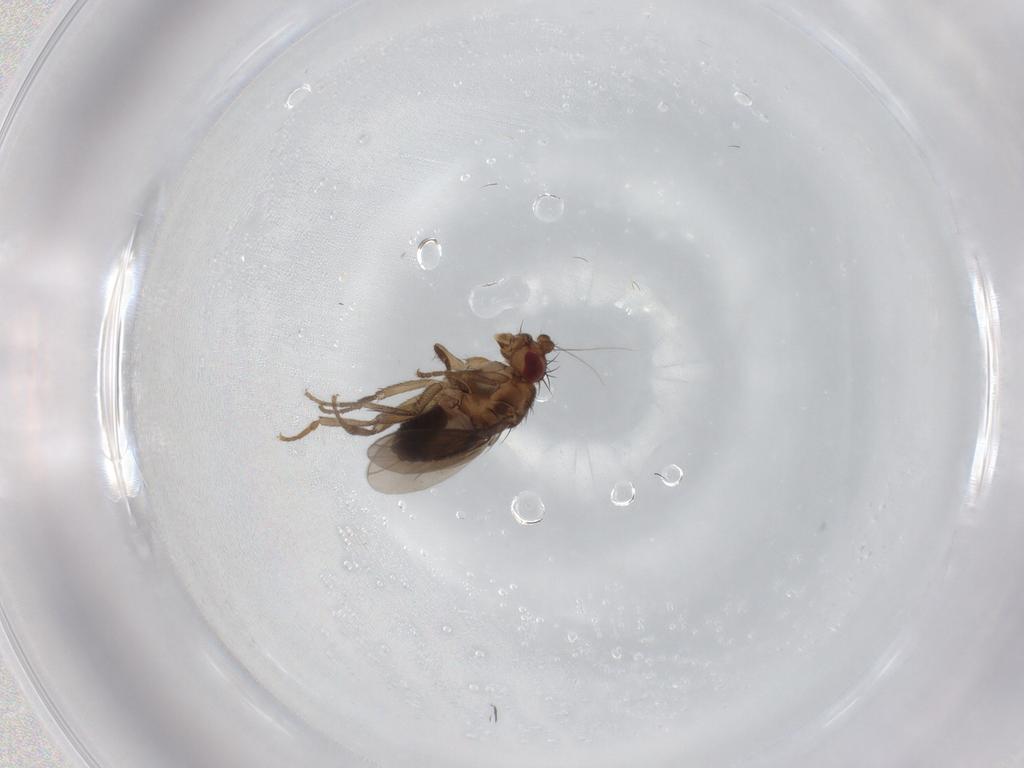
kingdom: Animalia
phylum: Arthropoda
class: Insecta
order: Diptera
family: Sphaeroceridae
